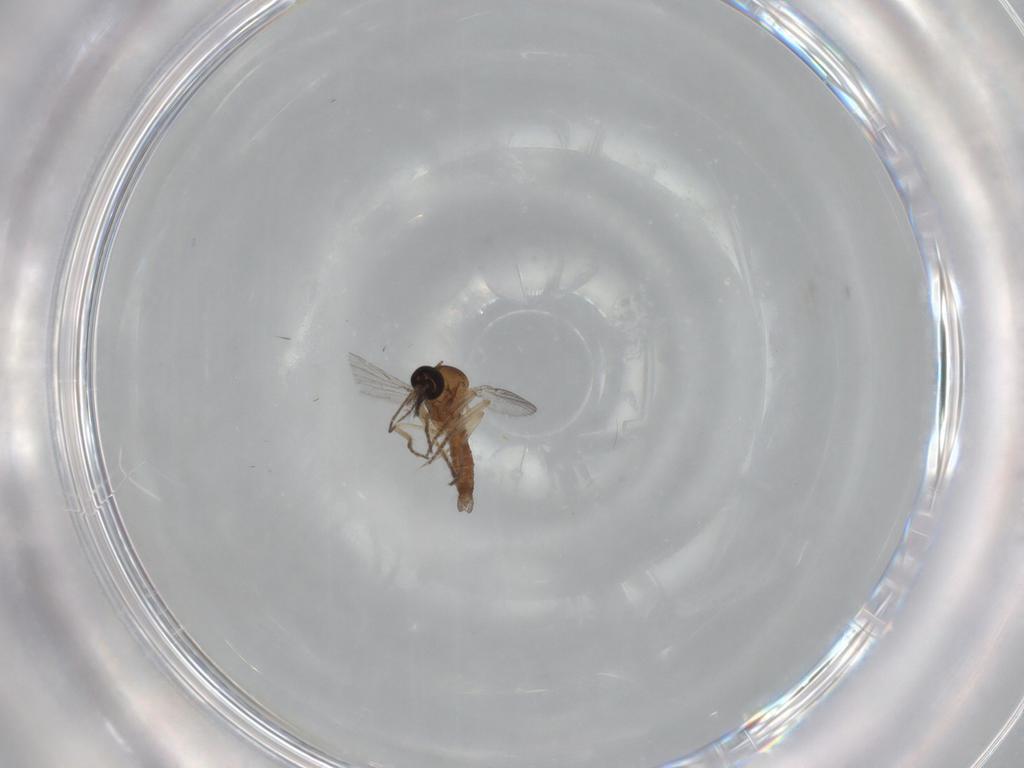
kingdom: Animalia
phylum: Arthropoda
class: Insecta
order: Diptera
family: Ceratopogonidae
